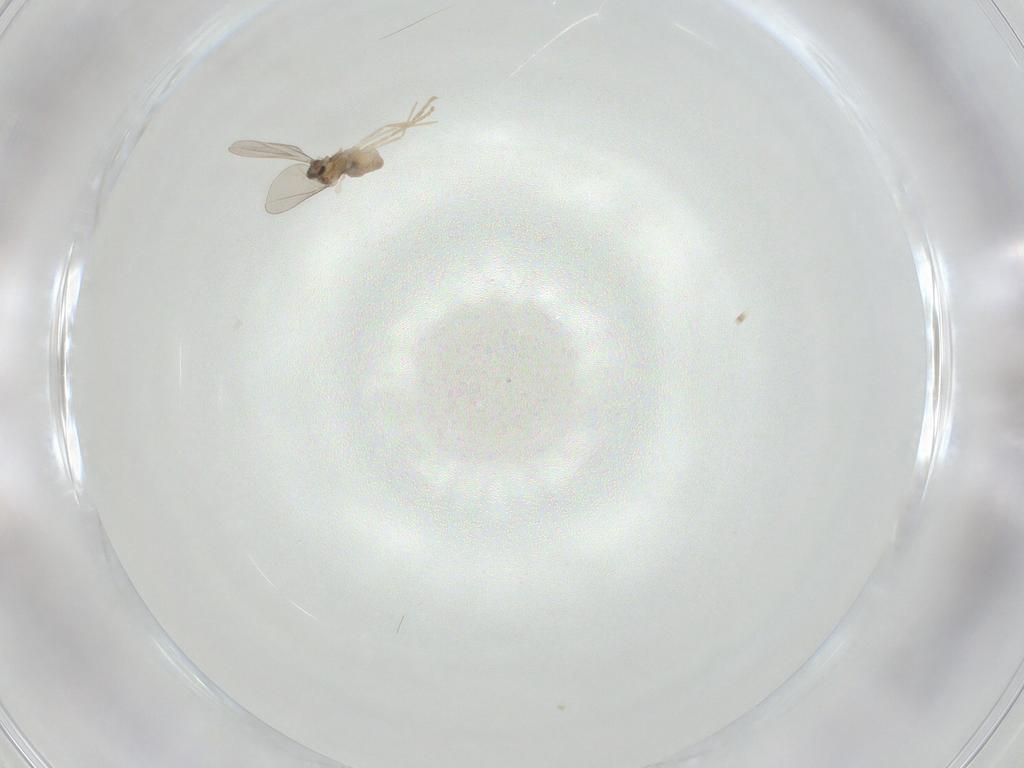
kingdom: Animalia
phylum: Arthropoda
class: Insecta
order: Diptera
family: Cecidomyiidae
